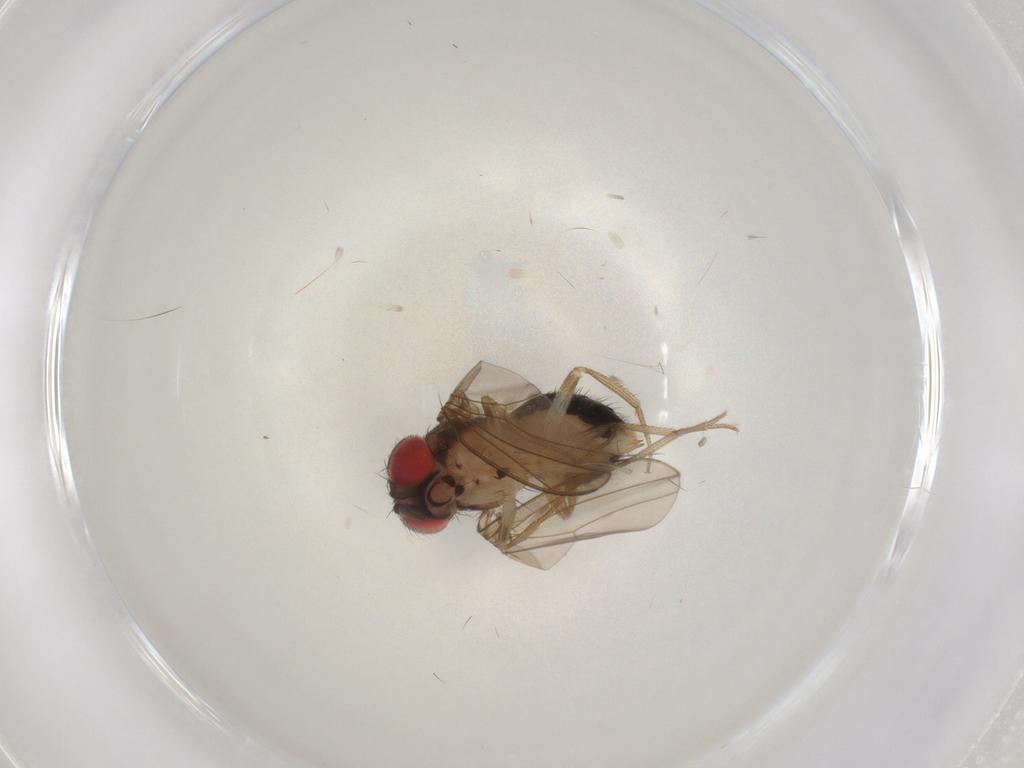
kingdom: Animalia
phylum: Arthropoda
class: Insecta
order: Diptera
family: Drosophilidae
